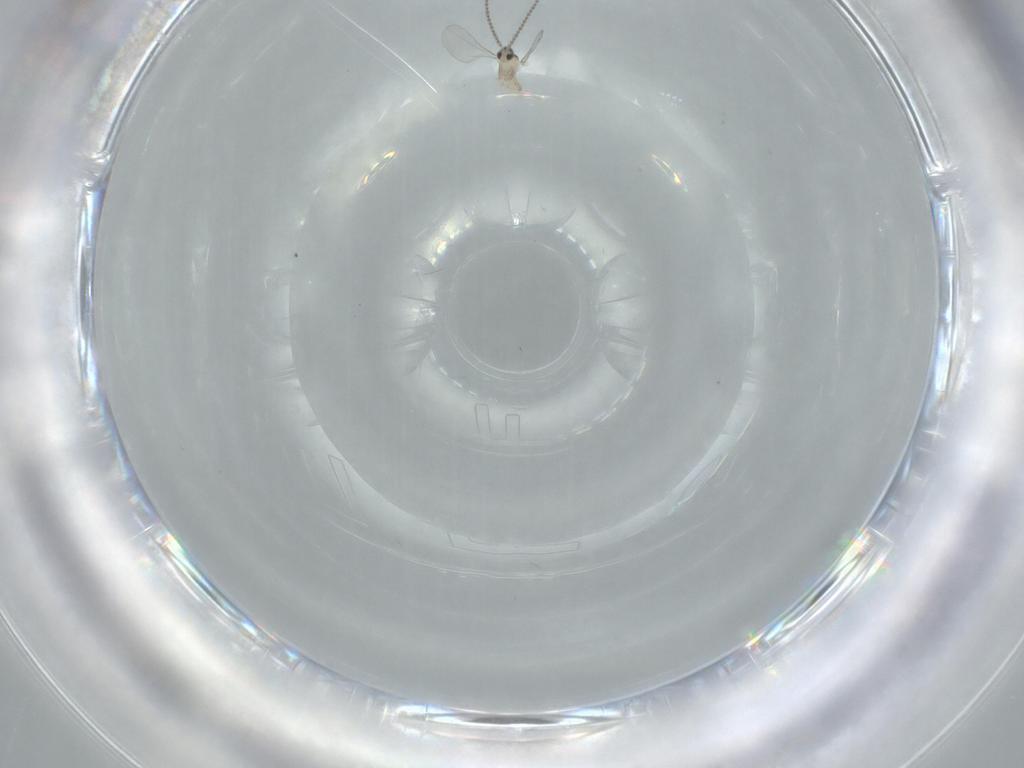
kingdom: Animalia
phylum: Arthropoda
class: Insecta
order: Diptera
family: Cecidomyiidae
